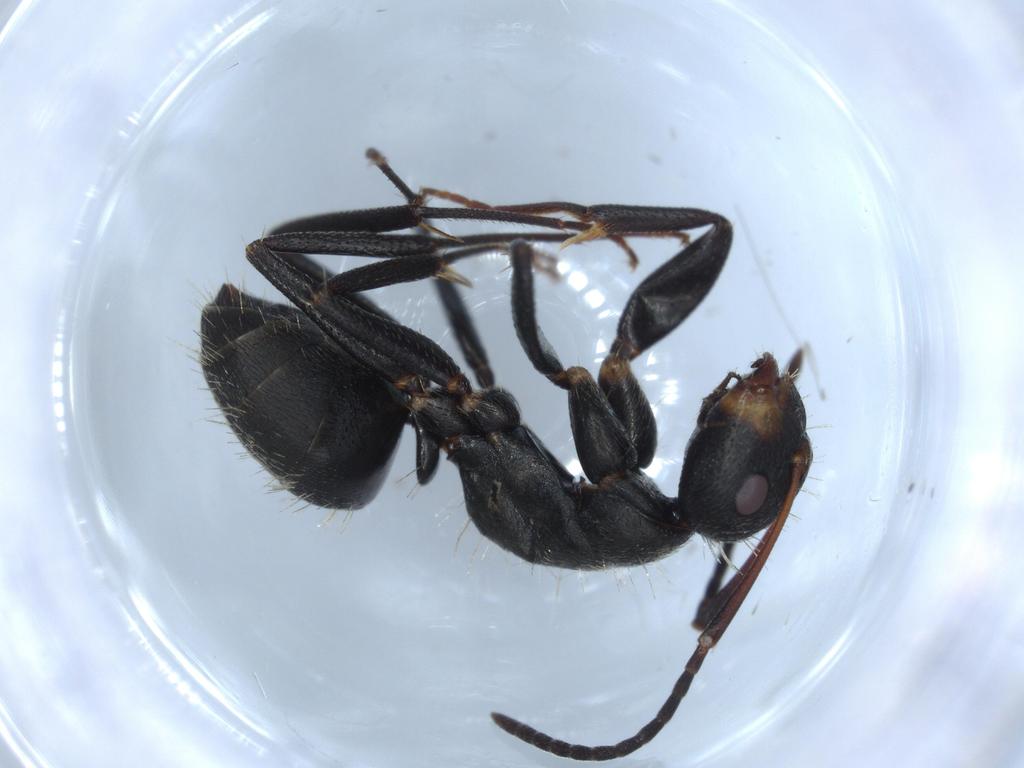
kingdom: Animalia
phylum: Arthropoda
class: Insecta
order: Hymenoptera
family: Formicidae
